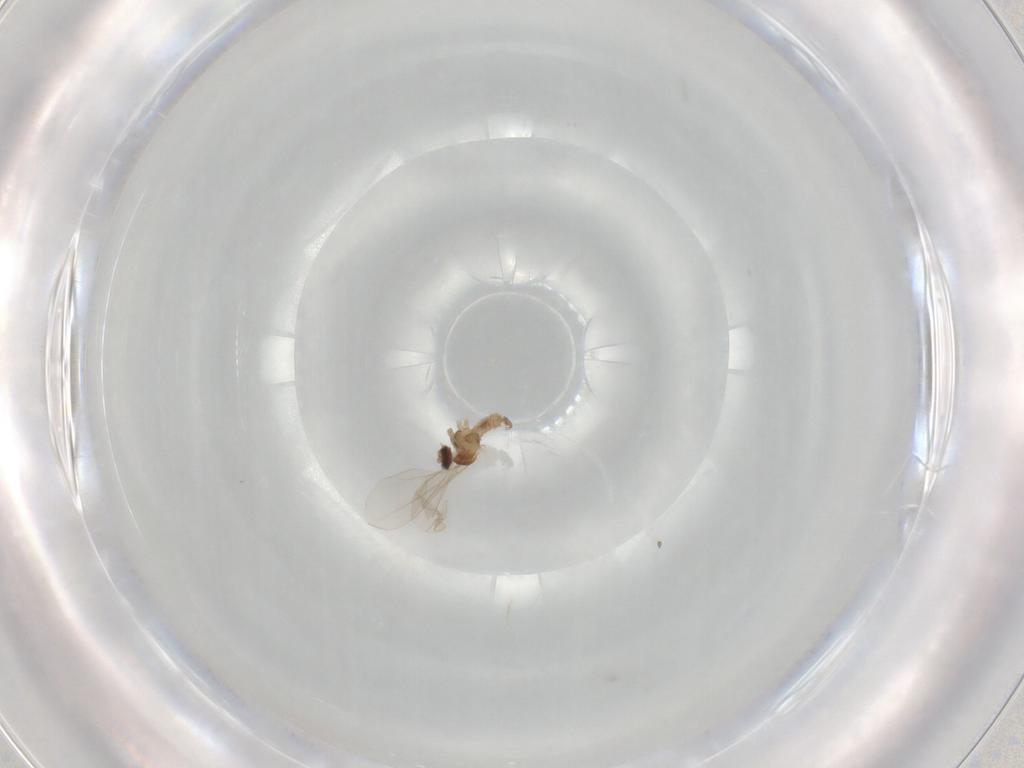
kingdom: Animalia
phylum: Arthropoda
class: Insecta
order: Diptera
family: Cecidomyiidae
